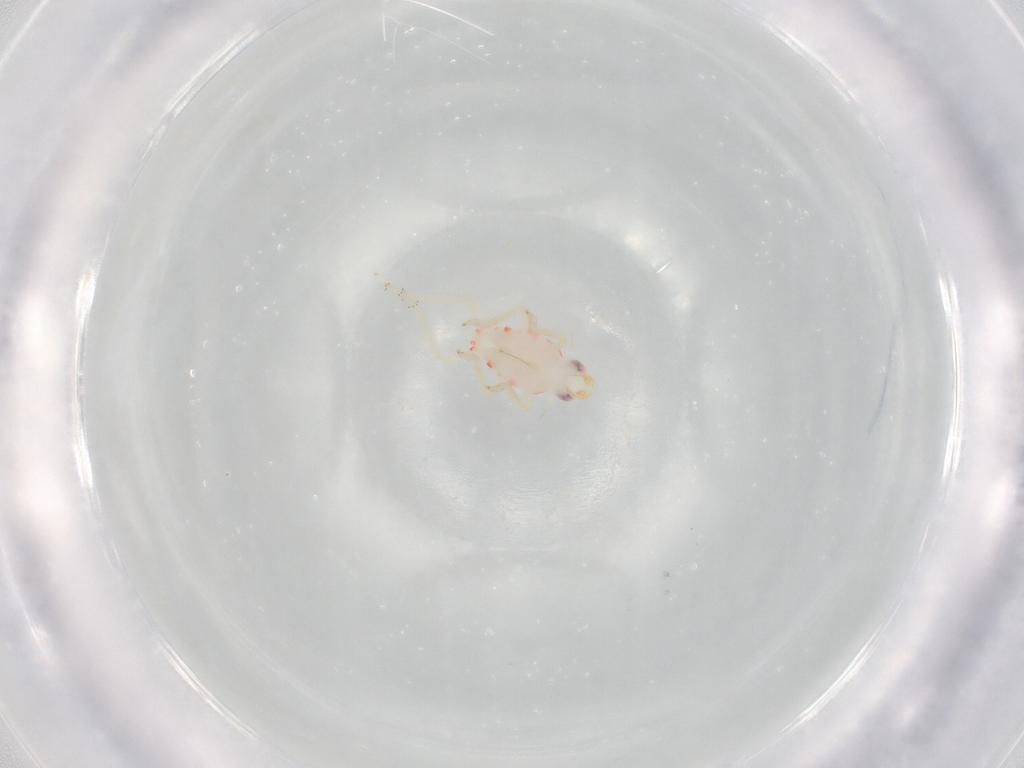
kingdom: Animalia
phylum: Arthropoda
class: Insecta
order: Hemiptera
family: Tropiduchidae
